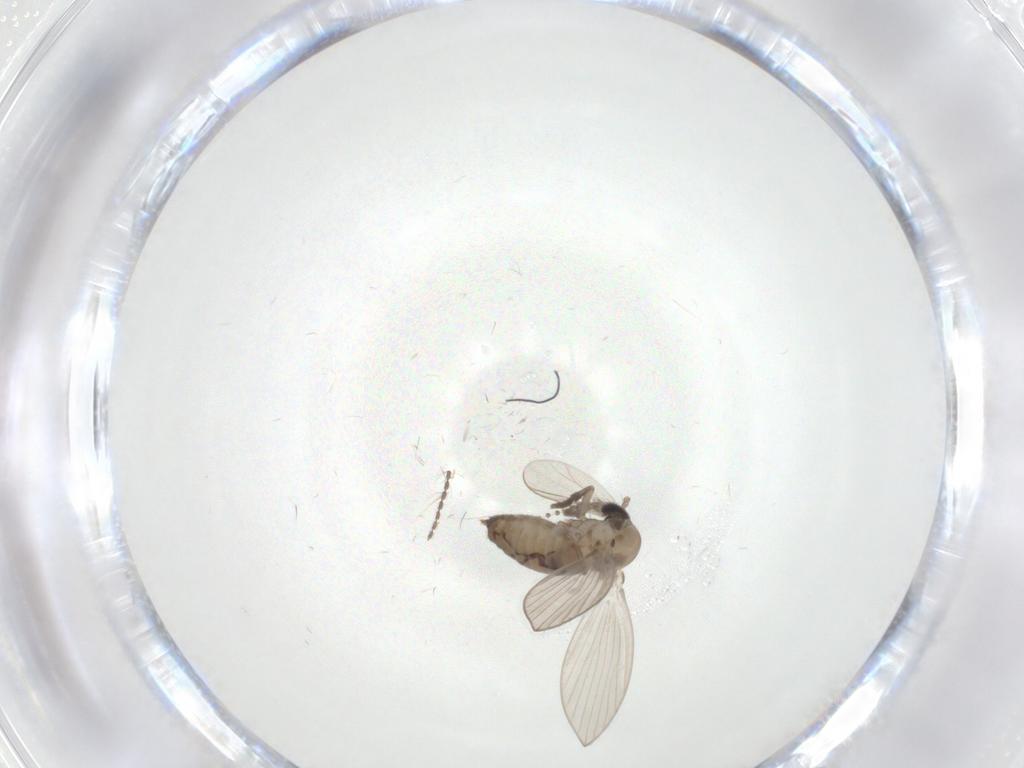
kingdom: Animalia
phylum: Arthropoda
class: Insecta
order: Diptera
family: Psychodidae
